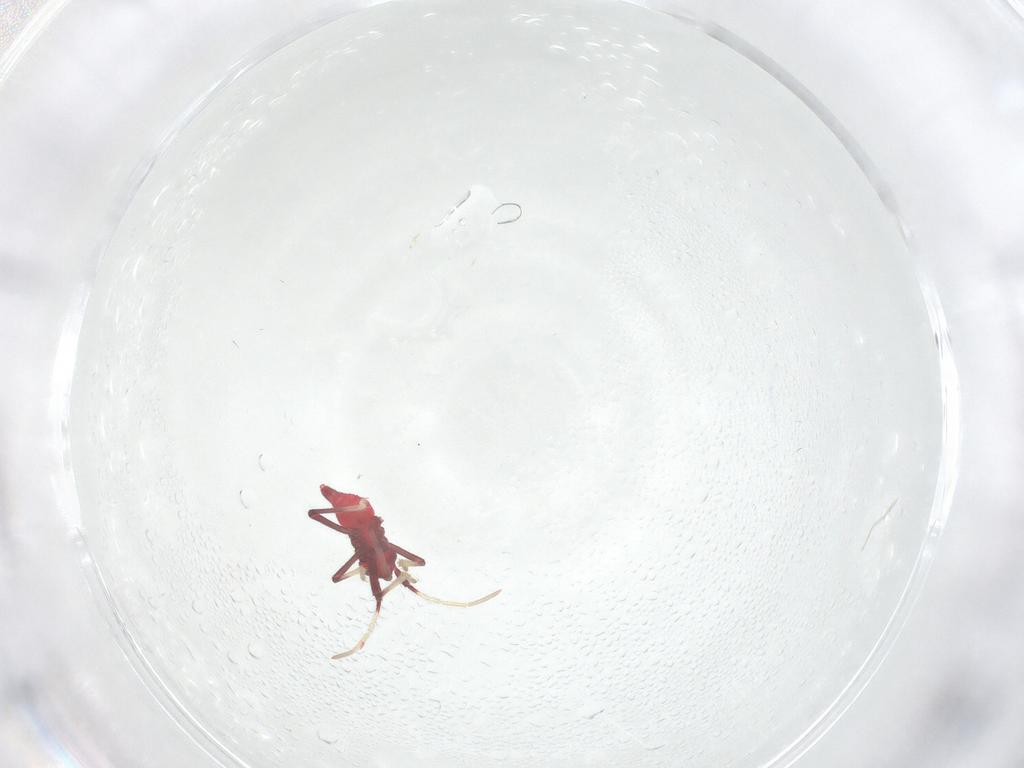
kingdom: Animalia
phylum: Arthropoda
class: Insecta
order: Hemiptera
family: Miridae
